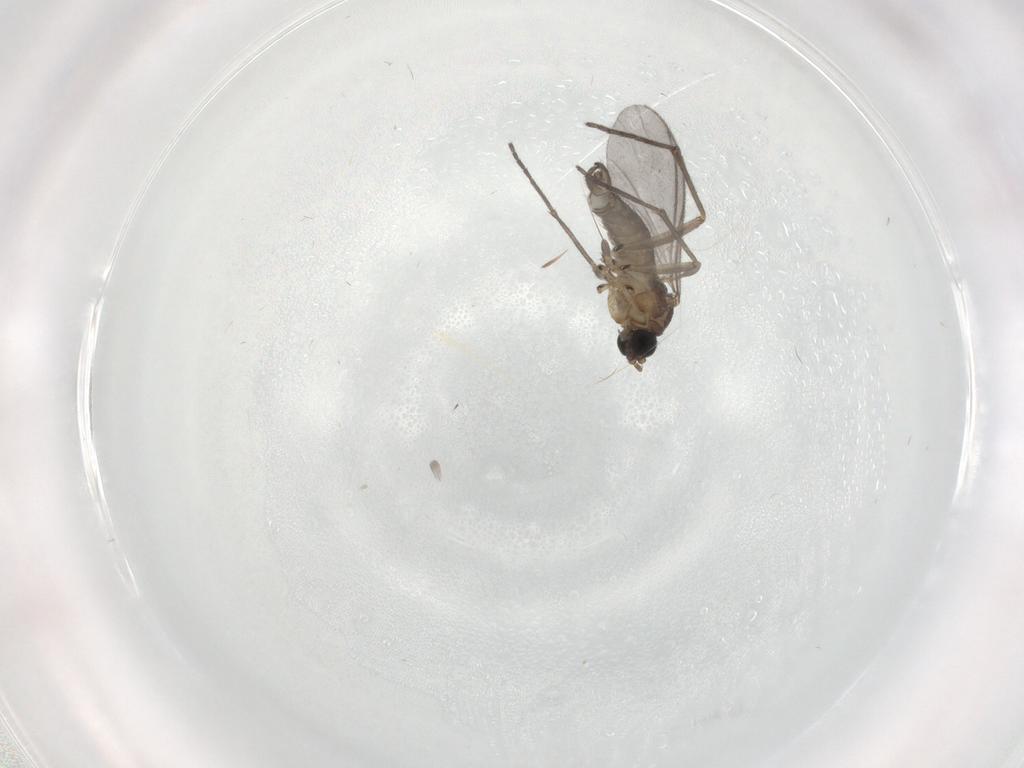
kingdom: Animalia
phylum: Arthropoda
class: Insecta
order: Diptera
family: Sciaridae
